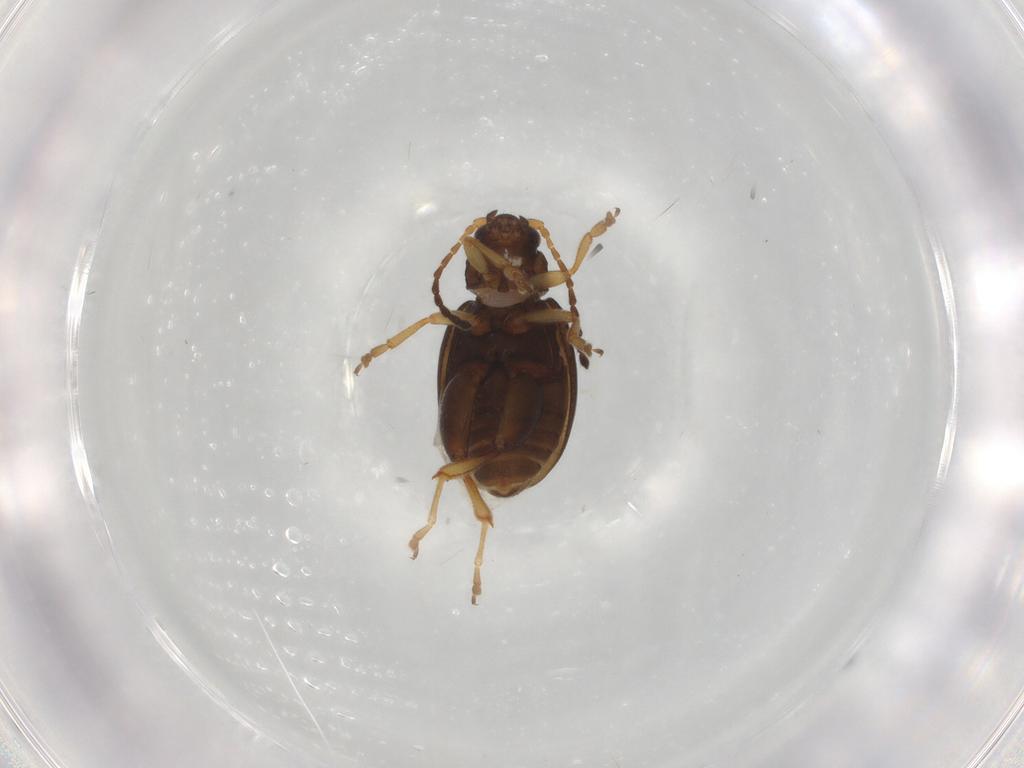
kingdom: Animalia
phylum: Arthropoda
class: Insecta
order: Coleoptera
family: Chrysomelidae
